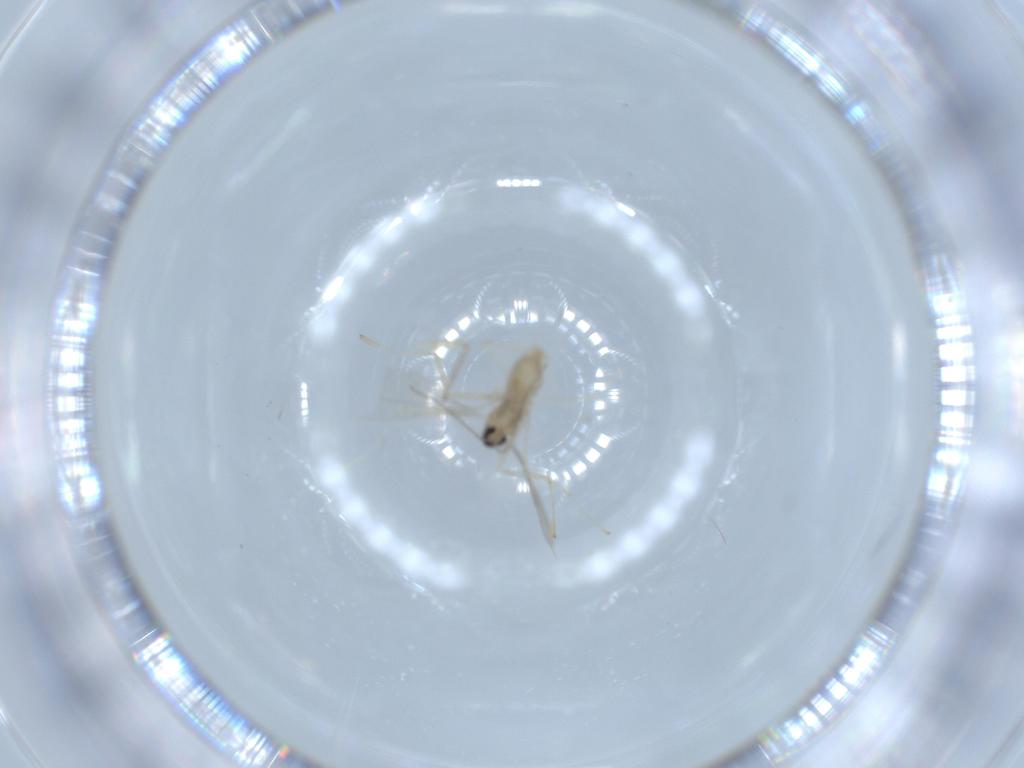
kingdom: Animalia
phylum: Arthropoda
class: Insecta
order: Diptera
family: Cecidomyiidae
